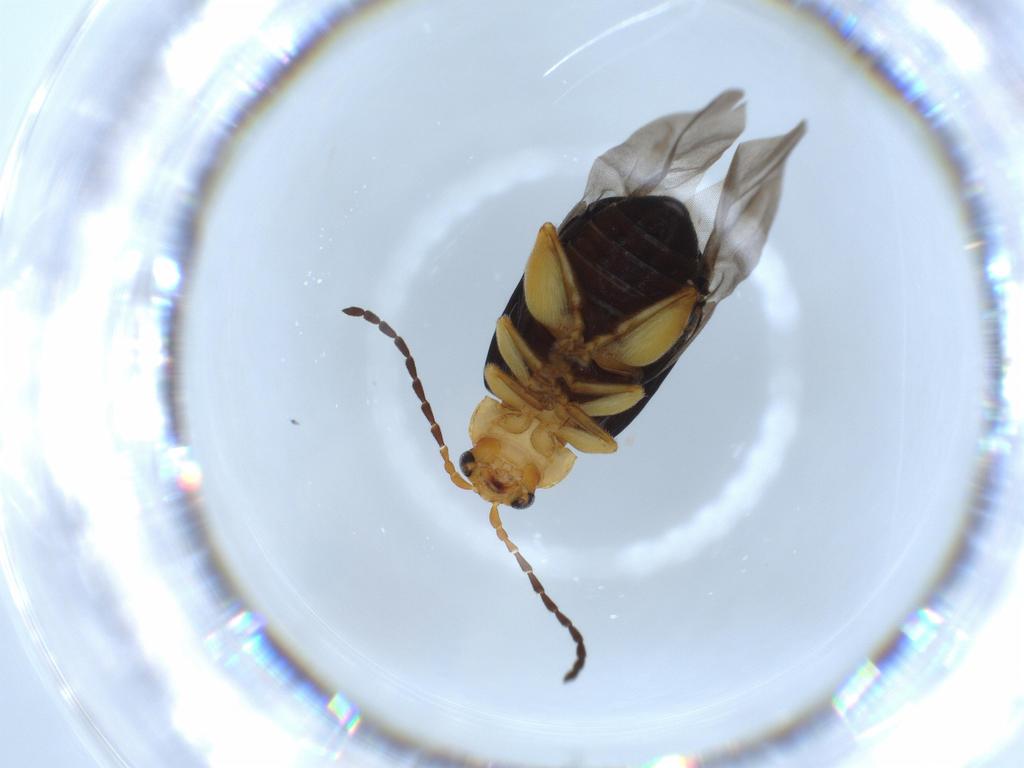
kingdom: Animalia
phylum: Arthropoda
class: Insecta
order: Coleoptera
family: Chrysomelidae
